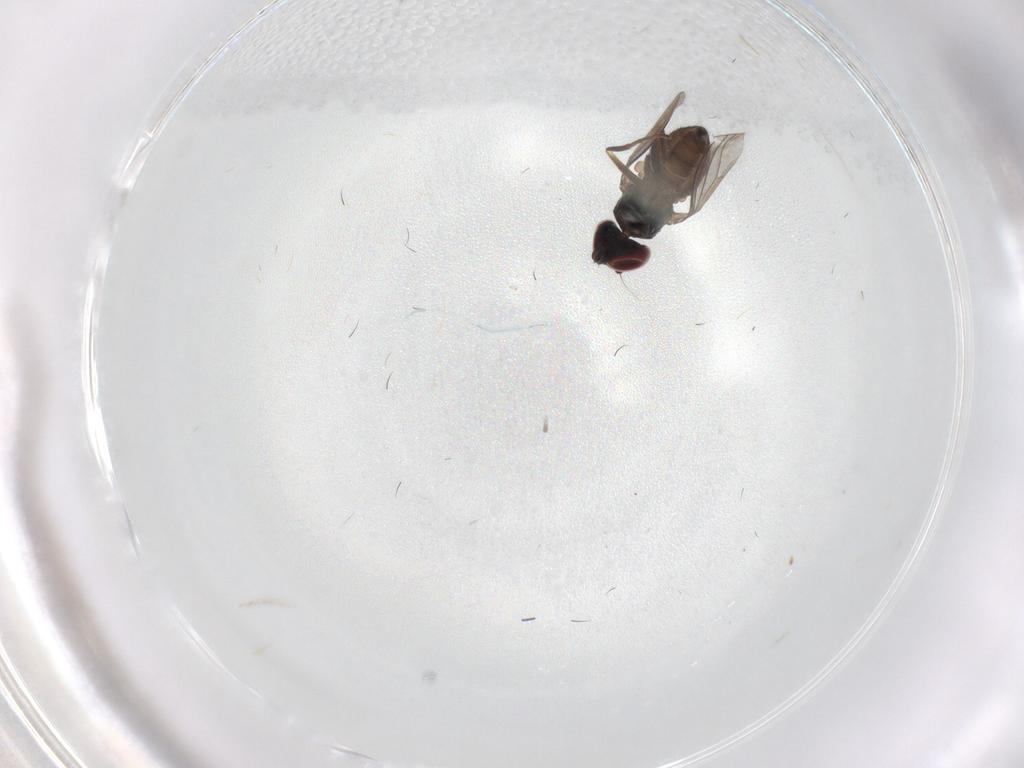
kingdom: Animalia
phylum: Arthropoda
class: Insecta
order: Diptera
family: Dolichopodidae
